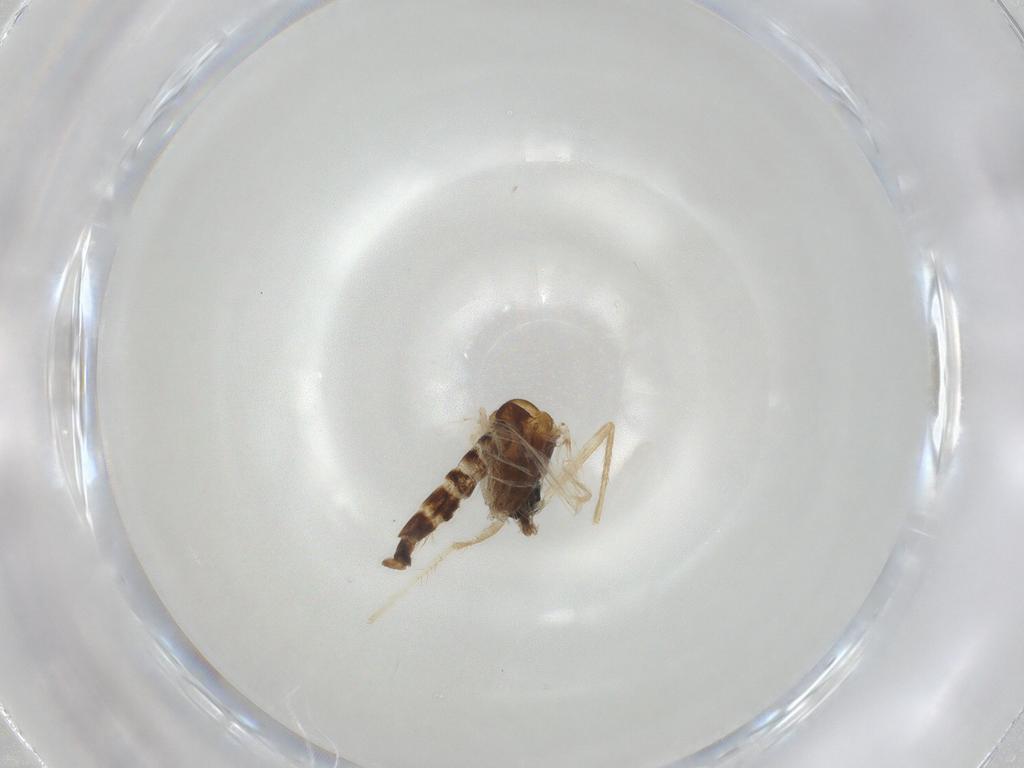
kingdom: Animalia
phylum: Arthropoda
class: Insecta
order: Diptera
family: Chironomidae
